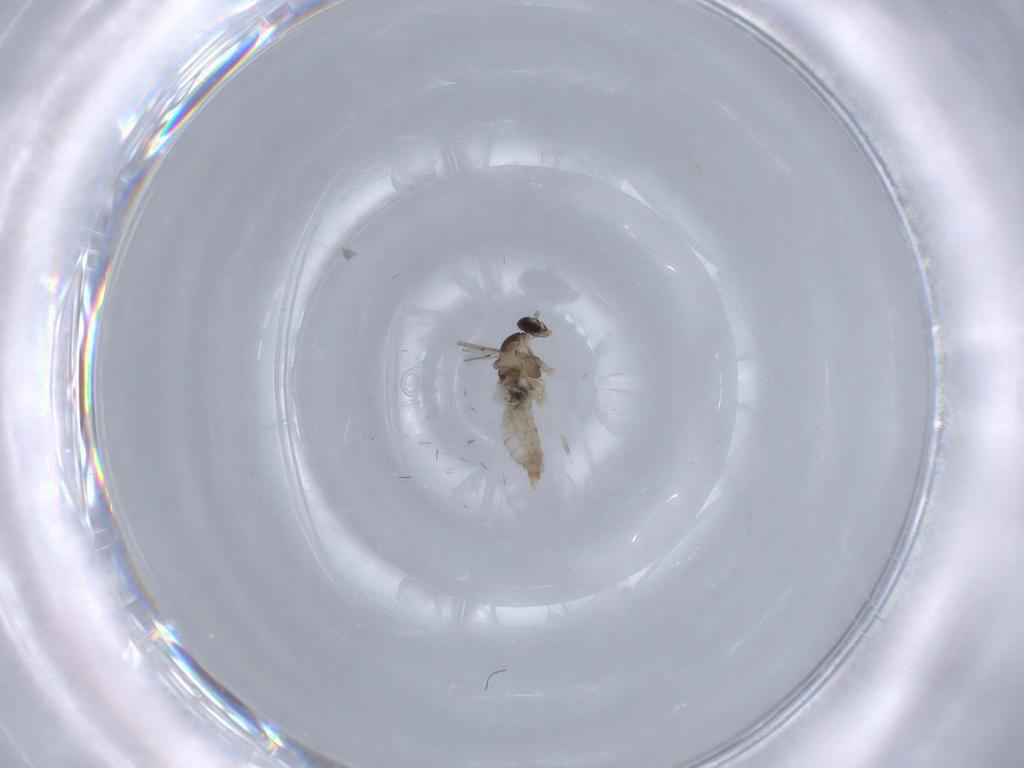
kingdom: Animalia
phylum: Arthropoda
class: Insecta
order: Diptera
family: Cecidomyiidae
